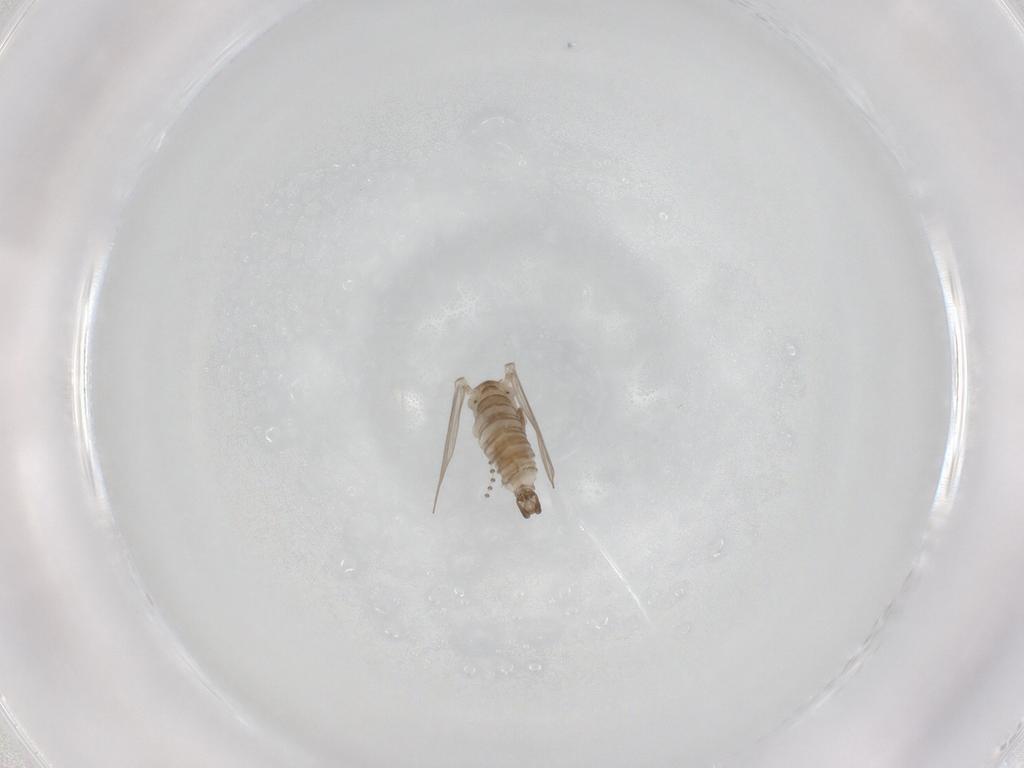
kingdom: Animalia
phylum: Arthropoda
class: Insecta
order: Diptera
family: Psychodidae
